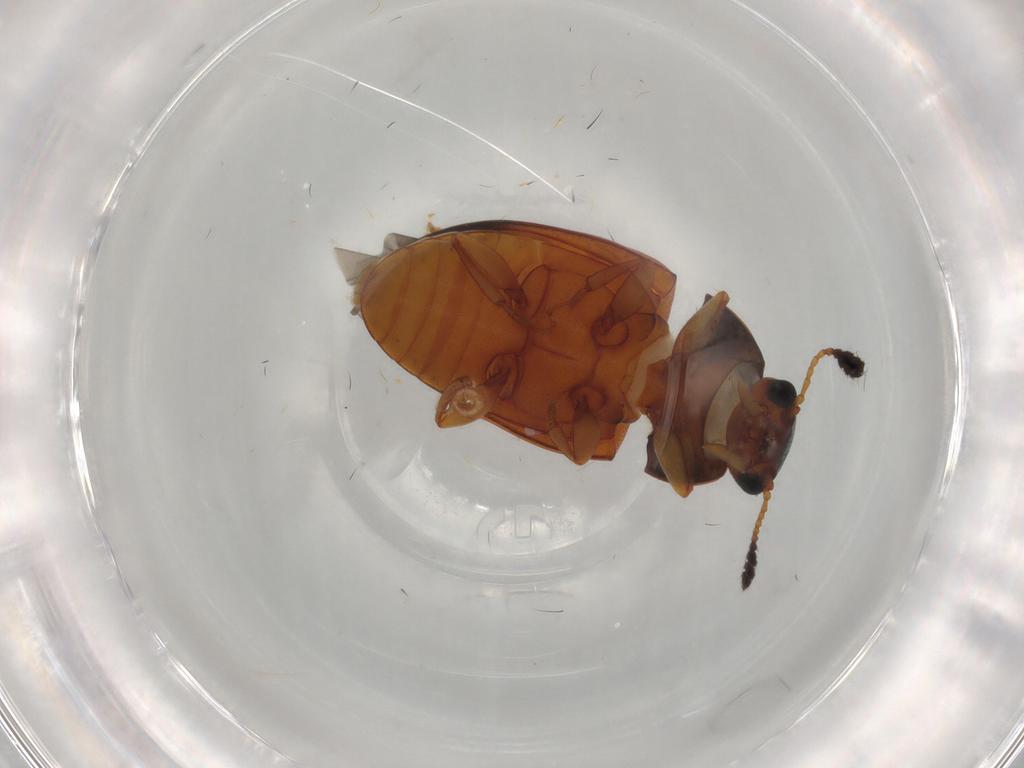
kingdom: Animalia
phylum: Arthropoda
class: Insecta
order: Coleoptera
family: Erotylidae
